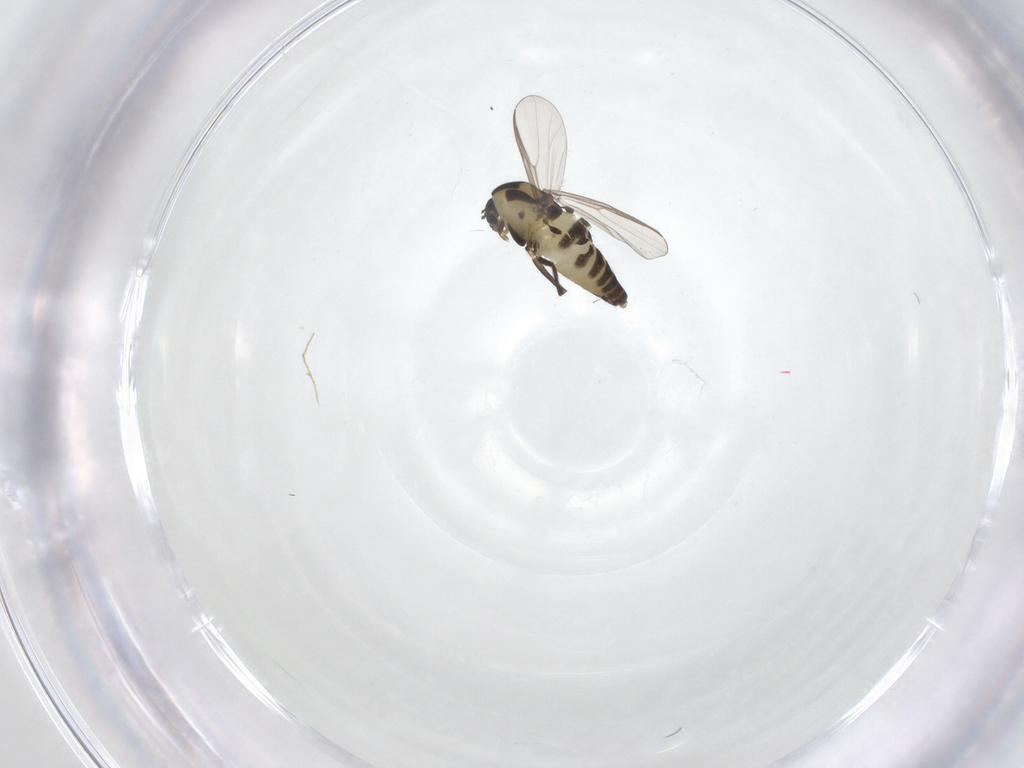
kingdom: Animalia
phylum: Arthropoda
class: Insecta
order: Diptera
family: Chironomidae
